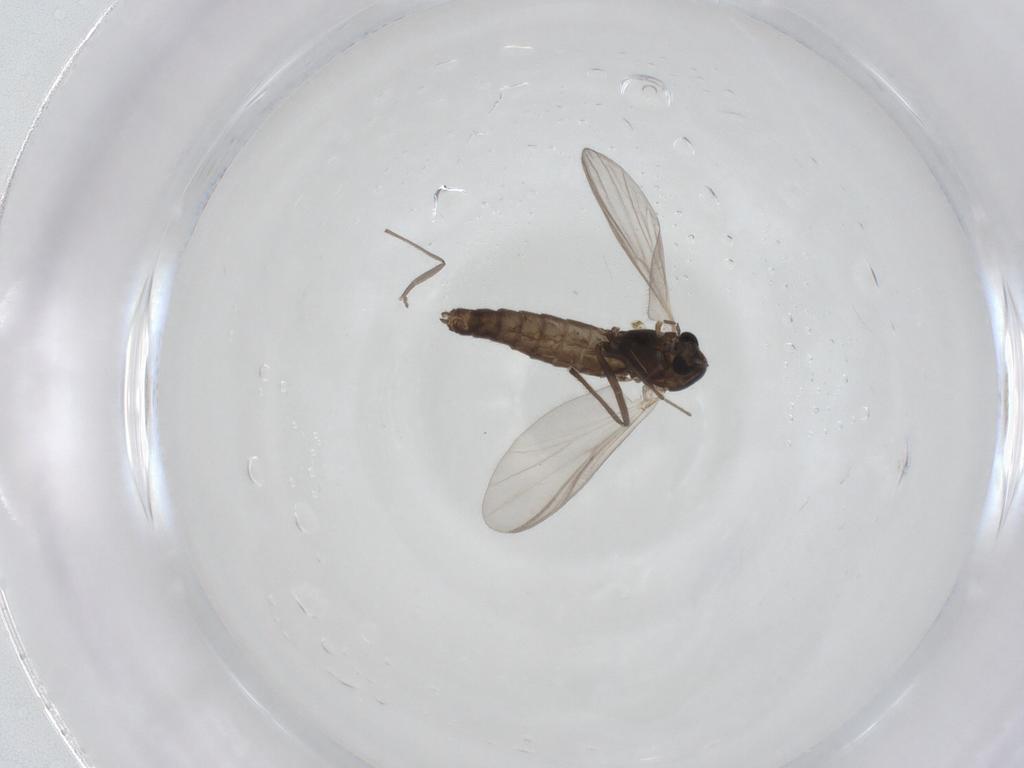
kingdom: Animalia
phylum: Arthropoda
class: Insecta
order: Diptera
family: Chironomidae
